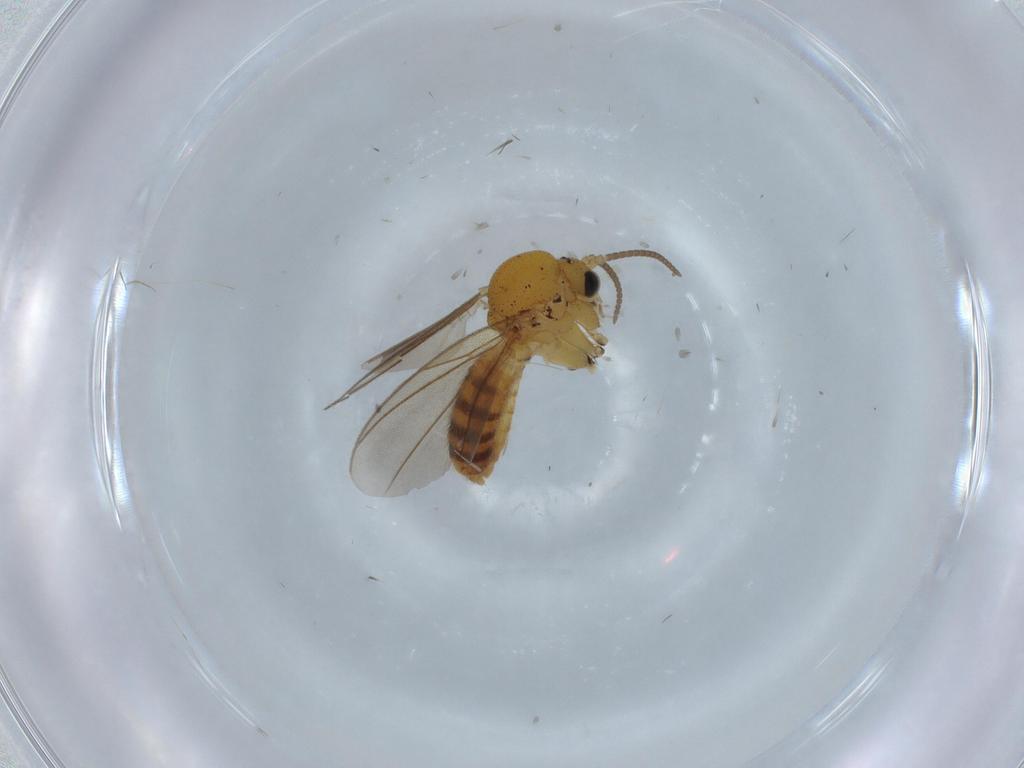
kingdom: Animalia
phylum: Arthropoda
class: Insecta
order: Diptera
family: Mycetophilidae
